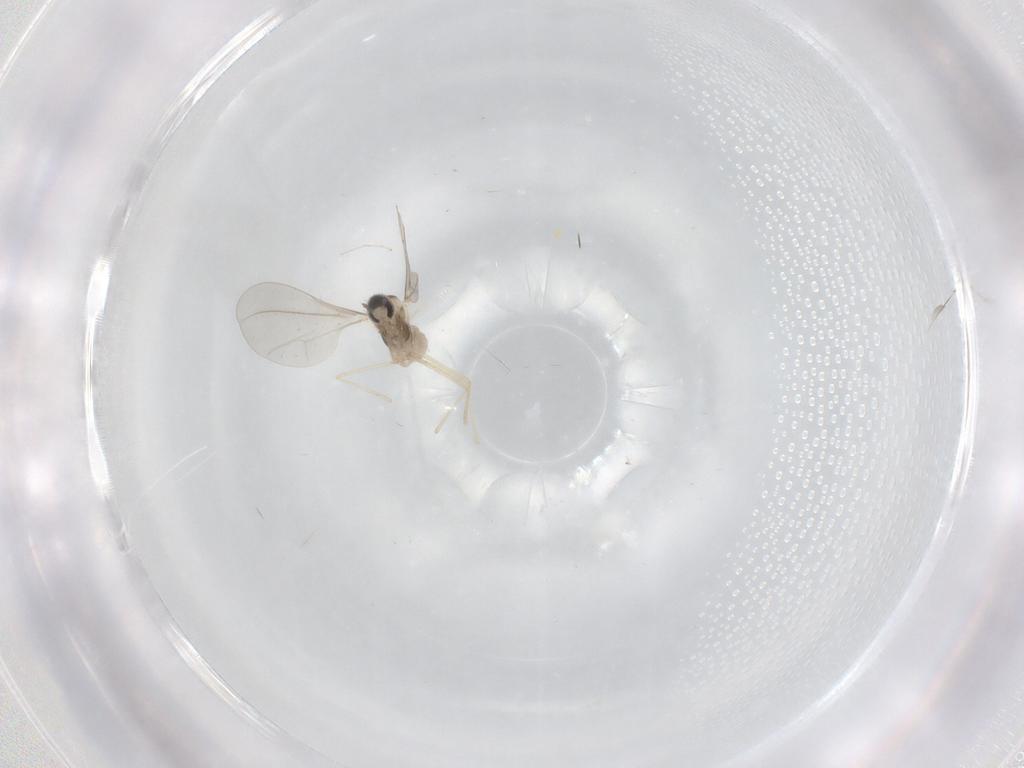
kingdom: Animalia
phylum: Arthropoda
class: Insecta
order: Diptera
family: Cecidomyiidae
